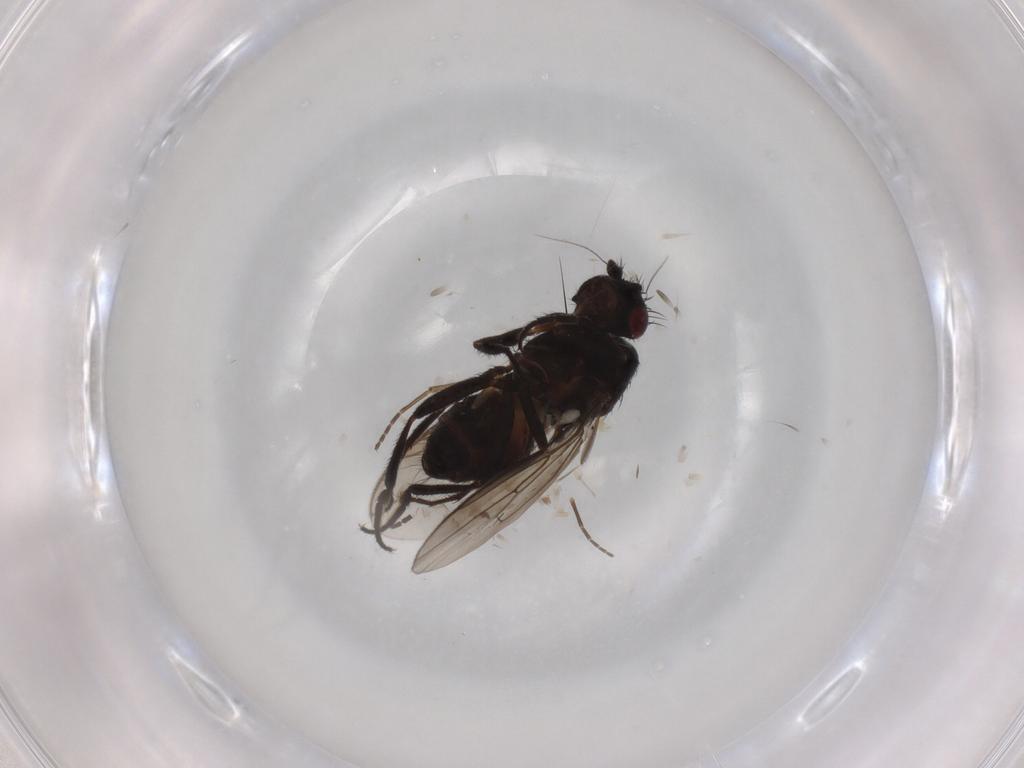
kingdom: Animalia
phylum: Arthropoda
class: Insecta
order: Diptera
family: Sphaeroceridae
